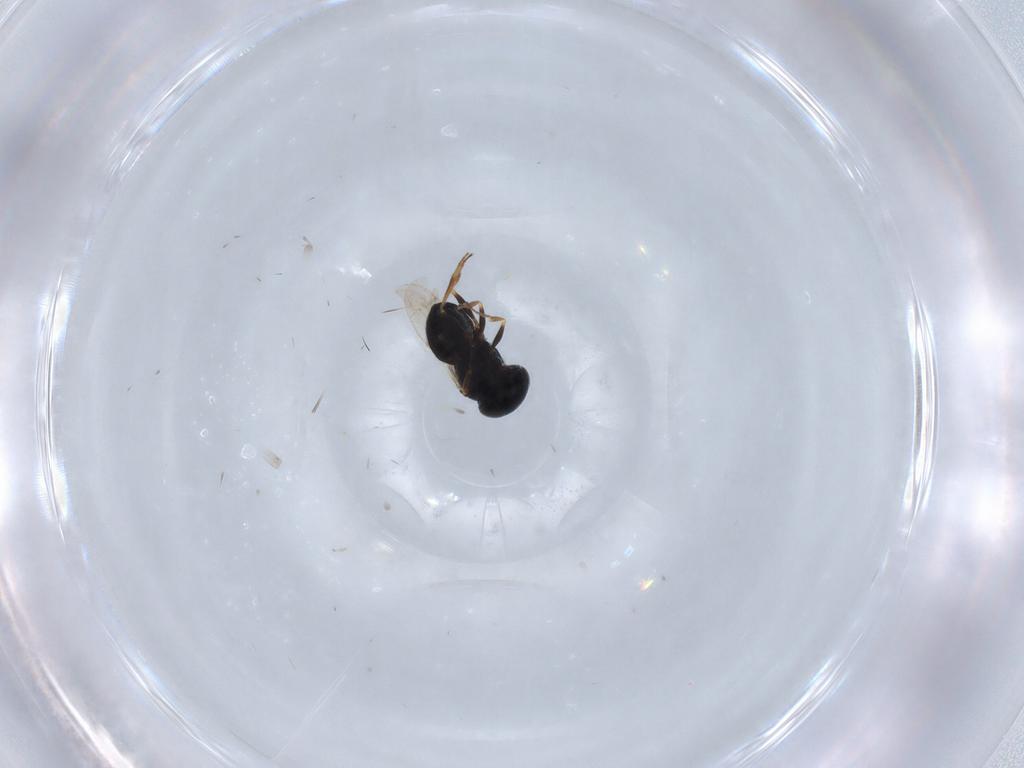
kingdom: Animalia
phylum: Arthropoda
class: Insecta
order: Coleoptera
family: Curculionidae
